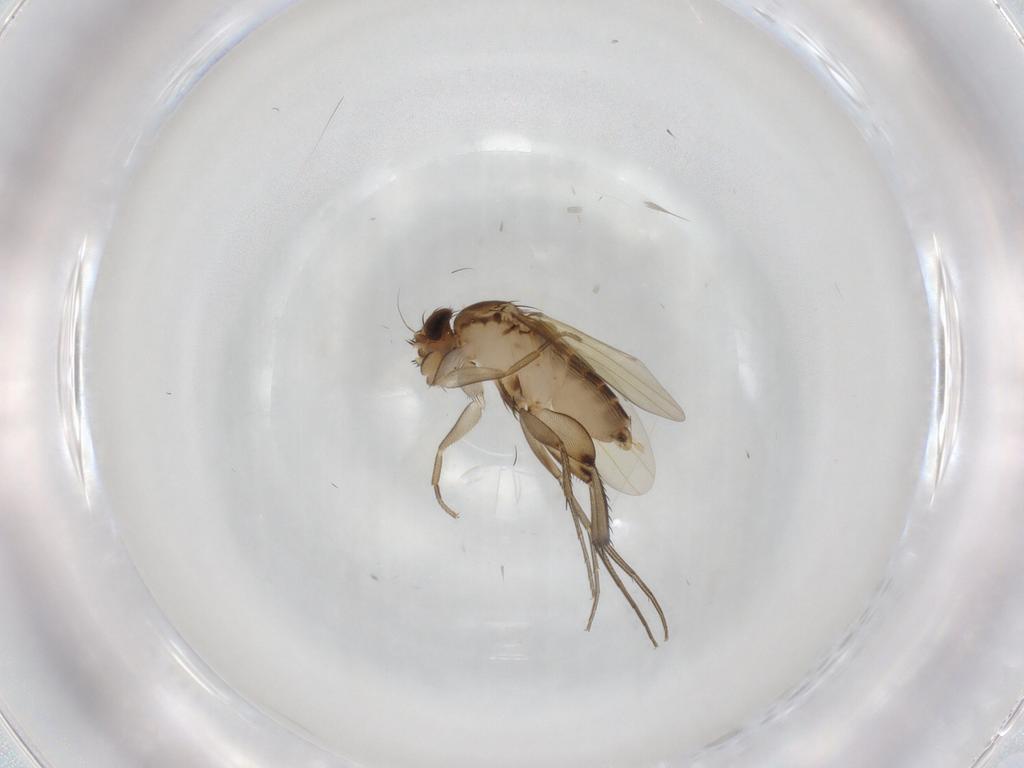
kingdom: Animalia
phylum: Arthropoda
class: Insecta
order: Diptera
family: Phoridae
